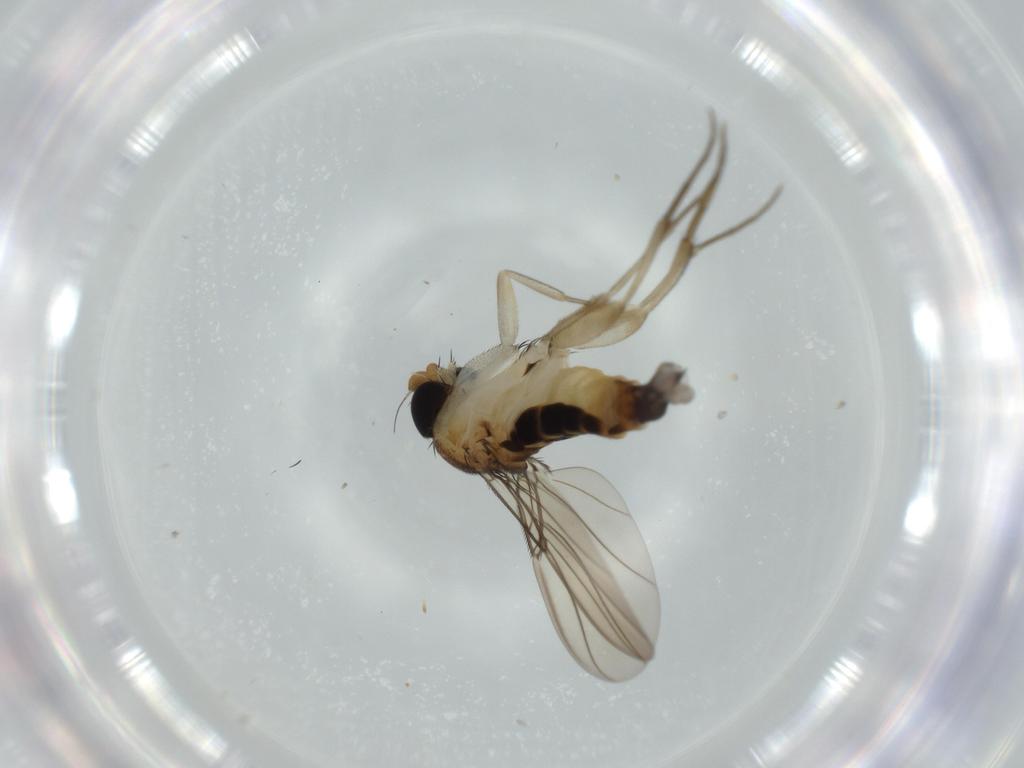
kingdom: Animalia
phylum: Arthropoda
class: Insecta
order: Diptera
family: Phoridae
